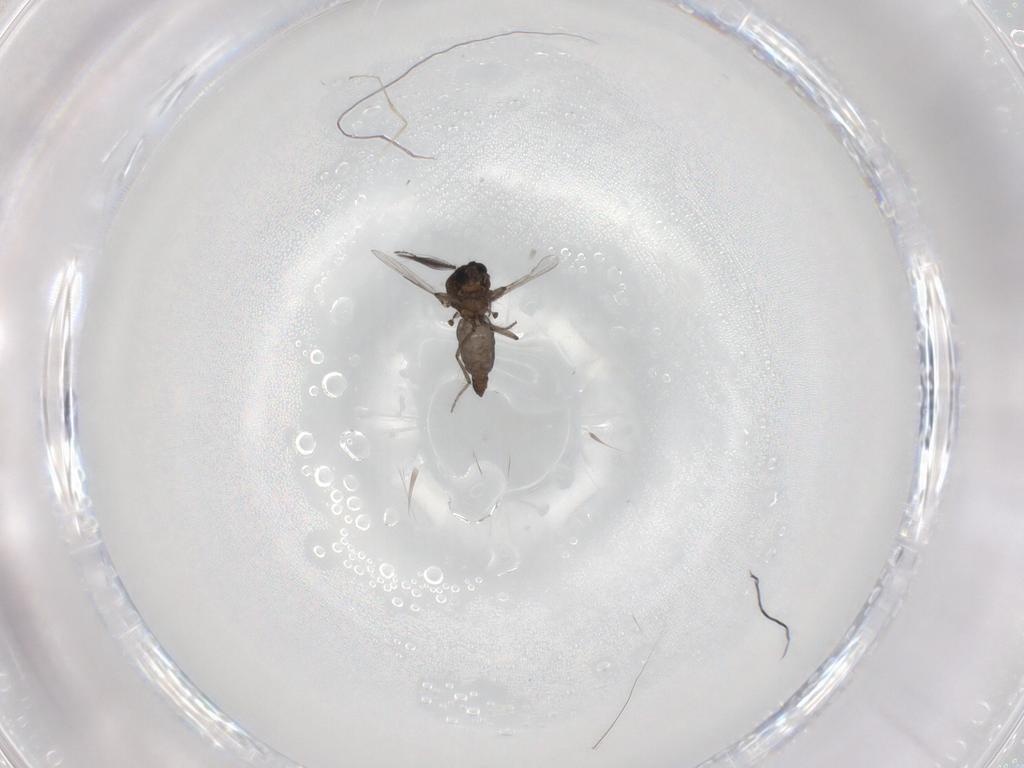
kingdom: Animalia
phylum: Arthropoda
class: Insecta
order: Diptera
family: Ceratopogonidae
